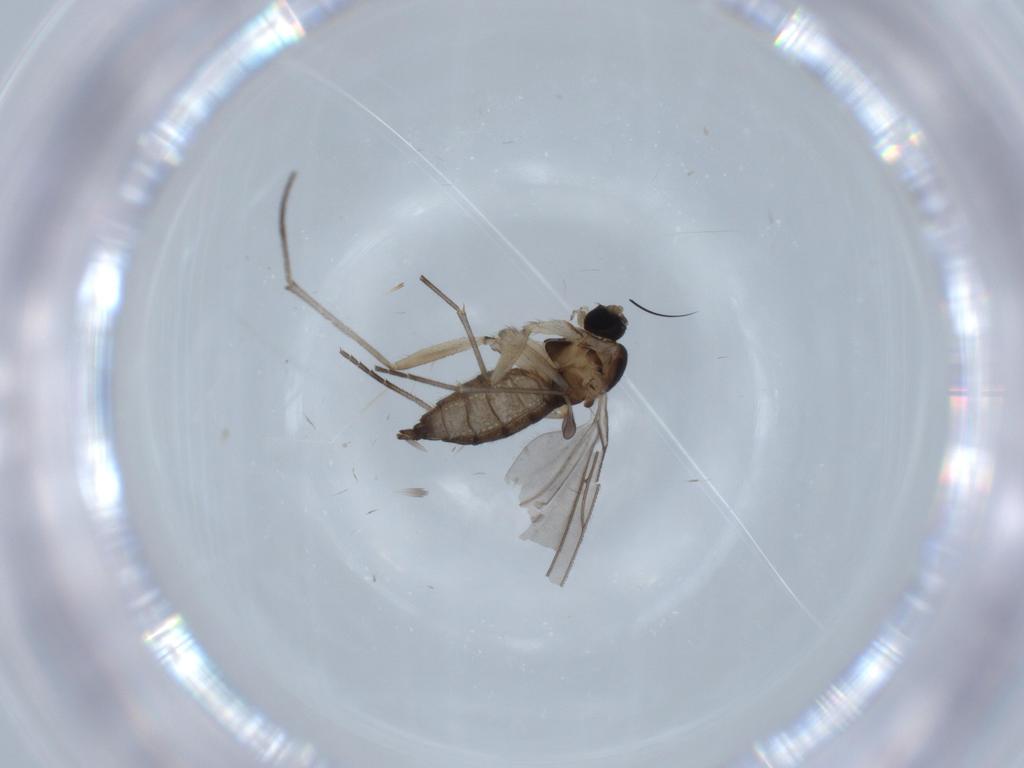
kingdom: Animalia
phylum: Arthropoda
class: Insecta
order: Diptera
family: Sciaridae
